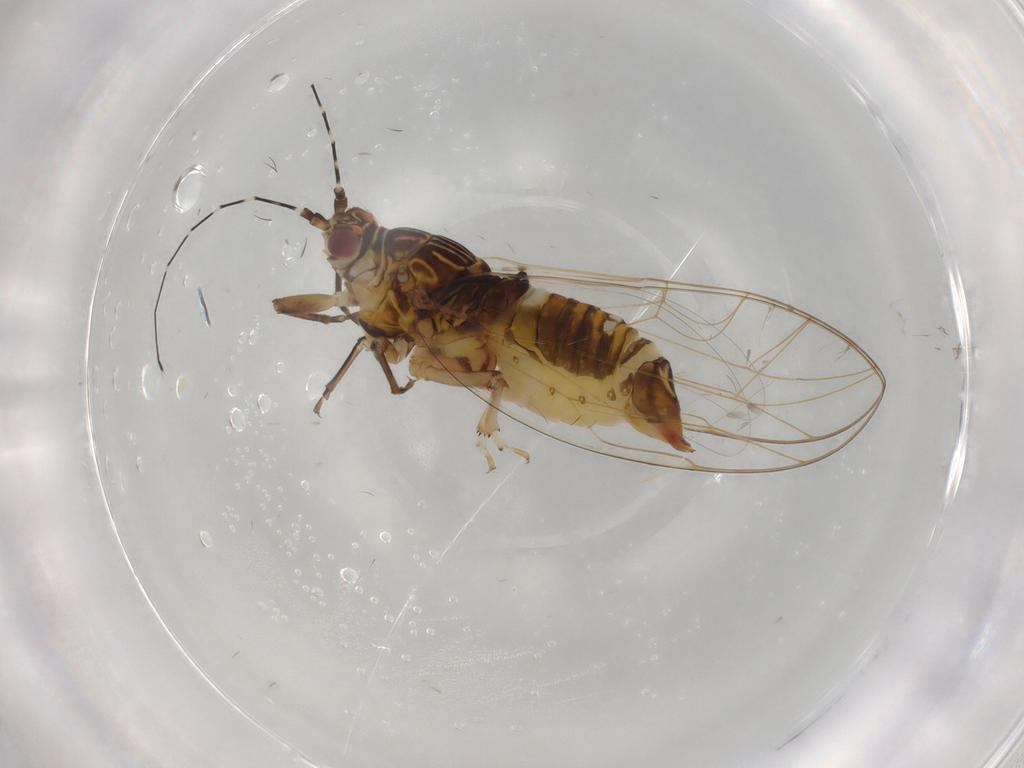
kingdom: Animalia
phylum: Arthropoda
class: Insecta
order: Hemiptera
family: Carsidaridae
